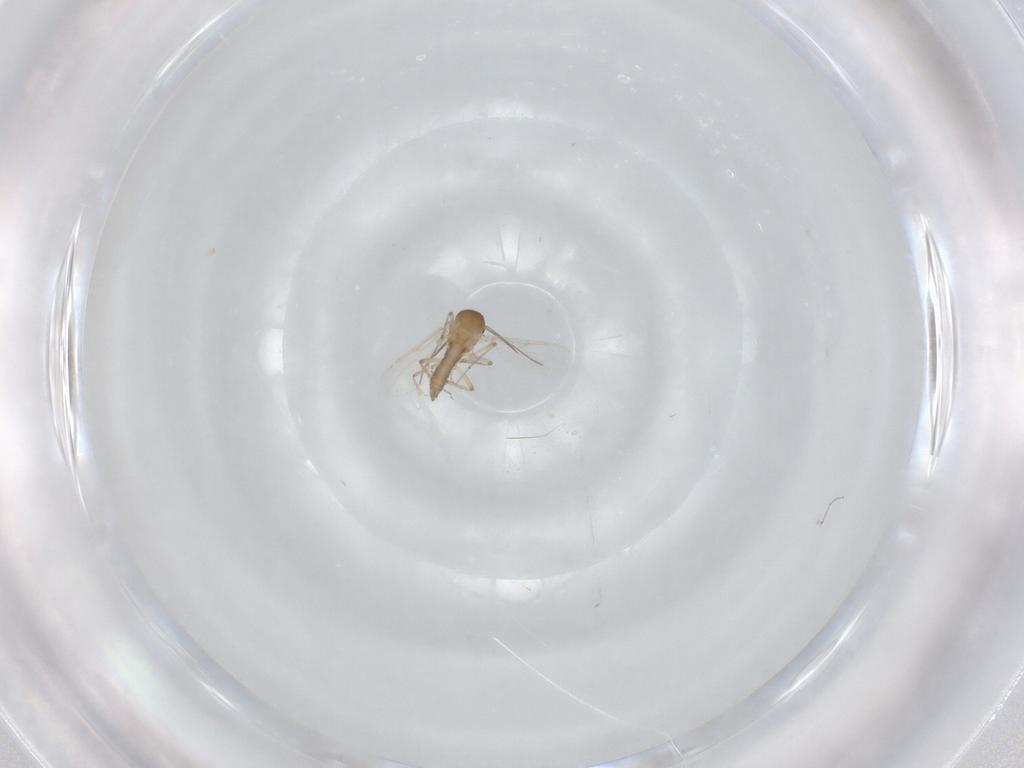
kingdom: Animalia
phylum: Arthropoda
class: Insecta
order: Diptera
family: Ceratopogonidae
